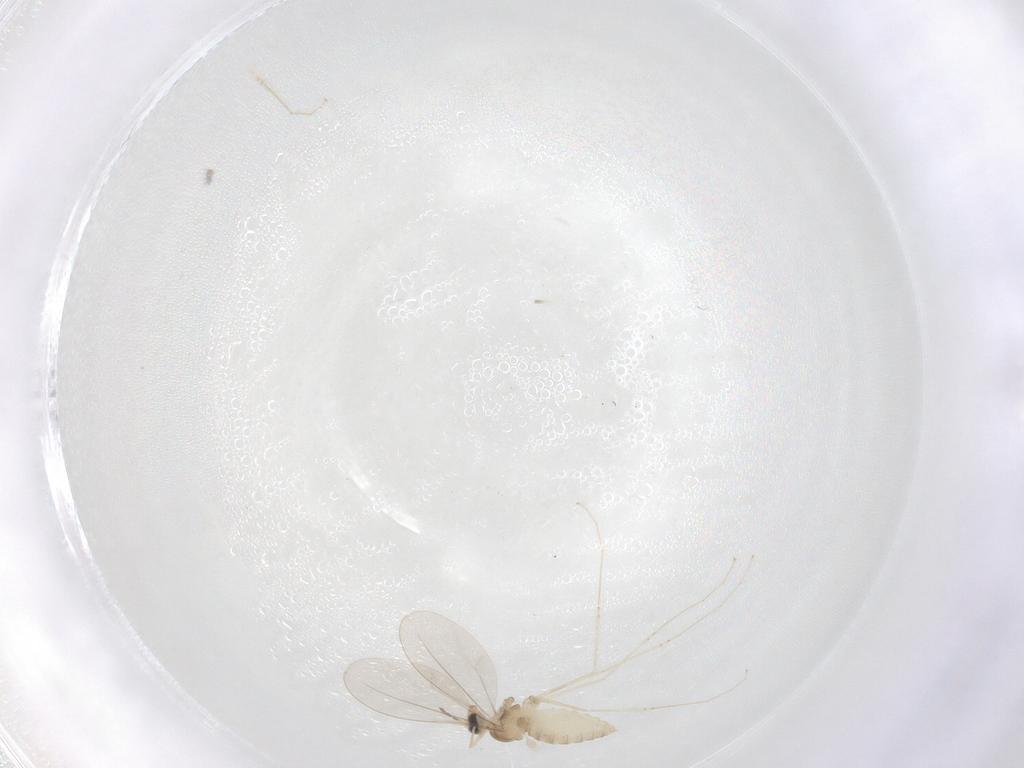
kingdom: Animalia
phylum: Arthropoda
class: Insecta
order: Diptera
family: Cecidomyiidae
